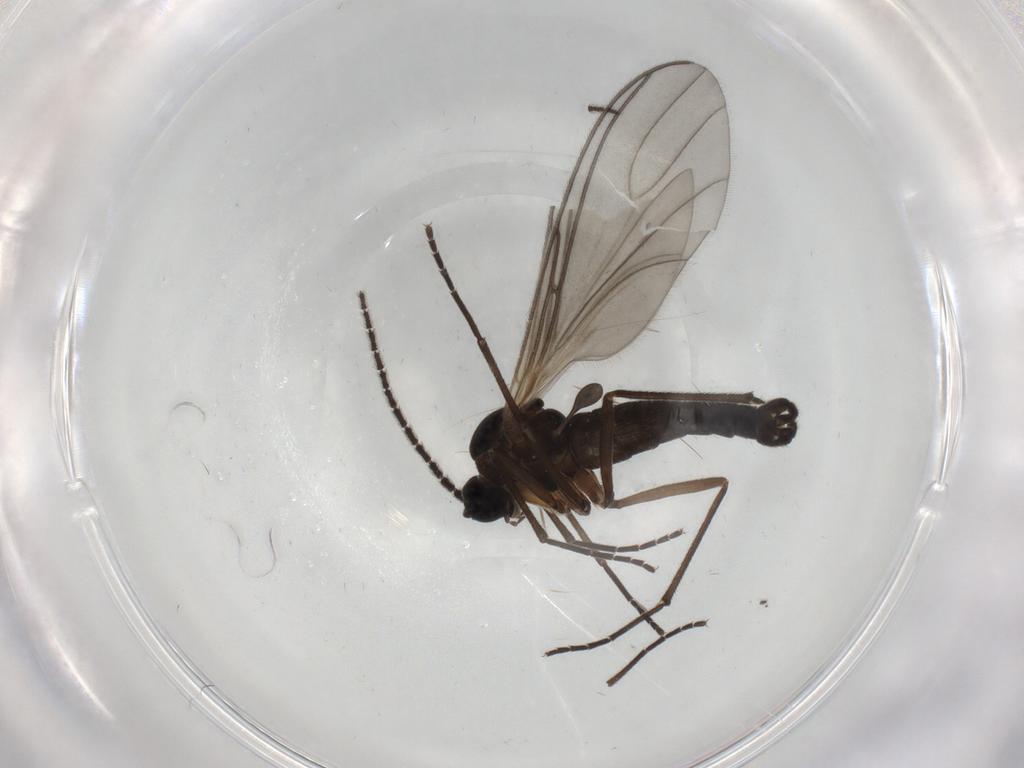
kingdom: Animalia
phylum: Arthropoda
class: Insecta
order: Diptera
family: Sciaridae
